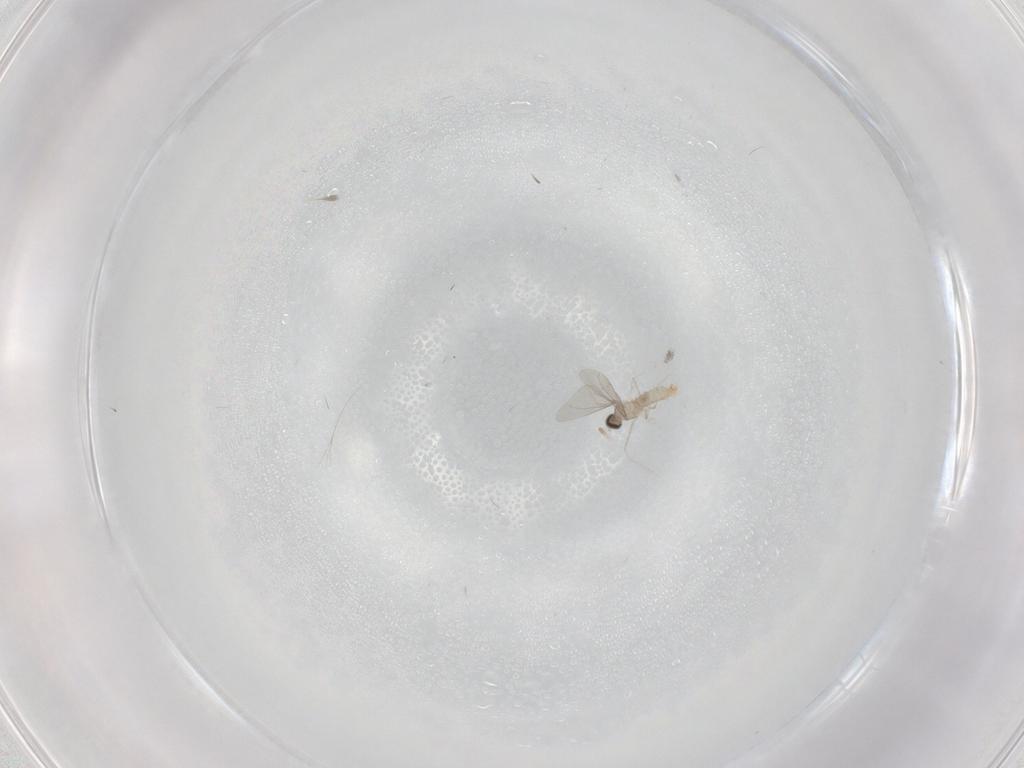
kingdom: Animalia
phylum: Arthropoda
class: Insecta
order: Diptera
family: Cecidomyiidae
